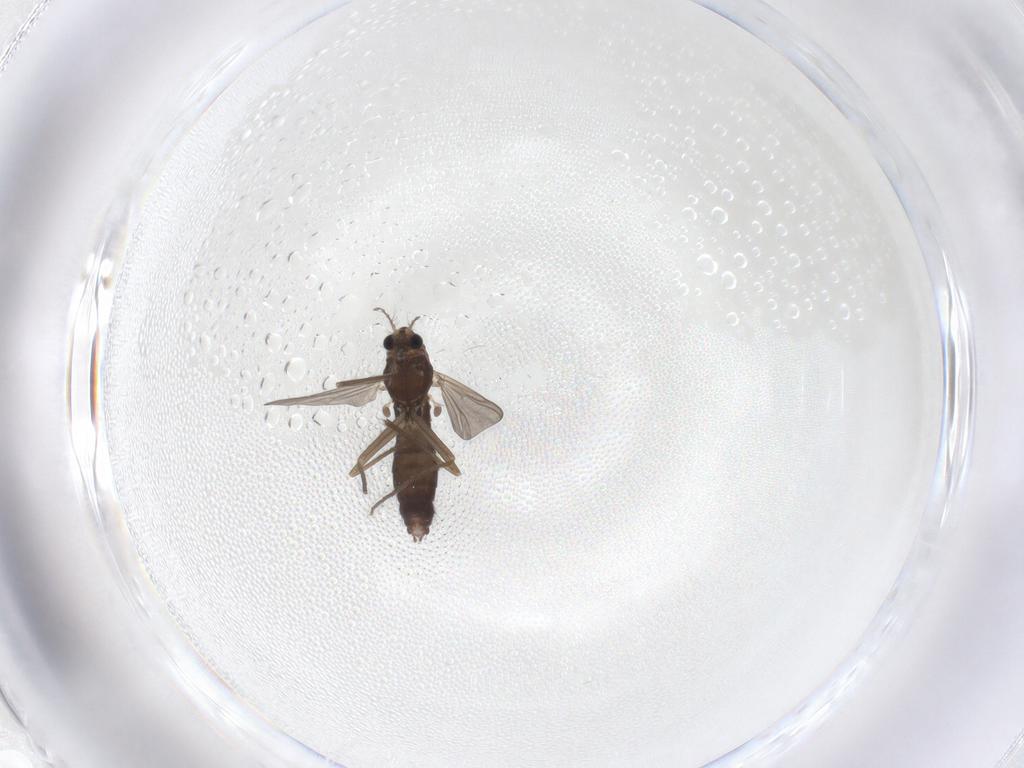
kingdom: Animalia
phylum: Arthropoda
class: Insecta
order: Diptera
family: Chironomidae
